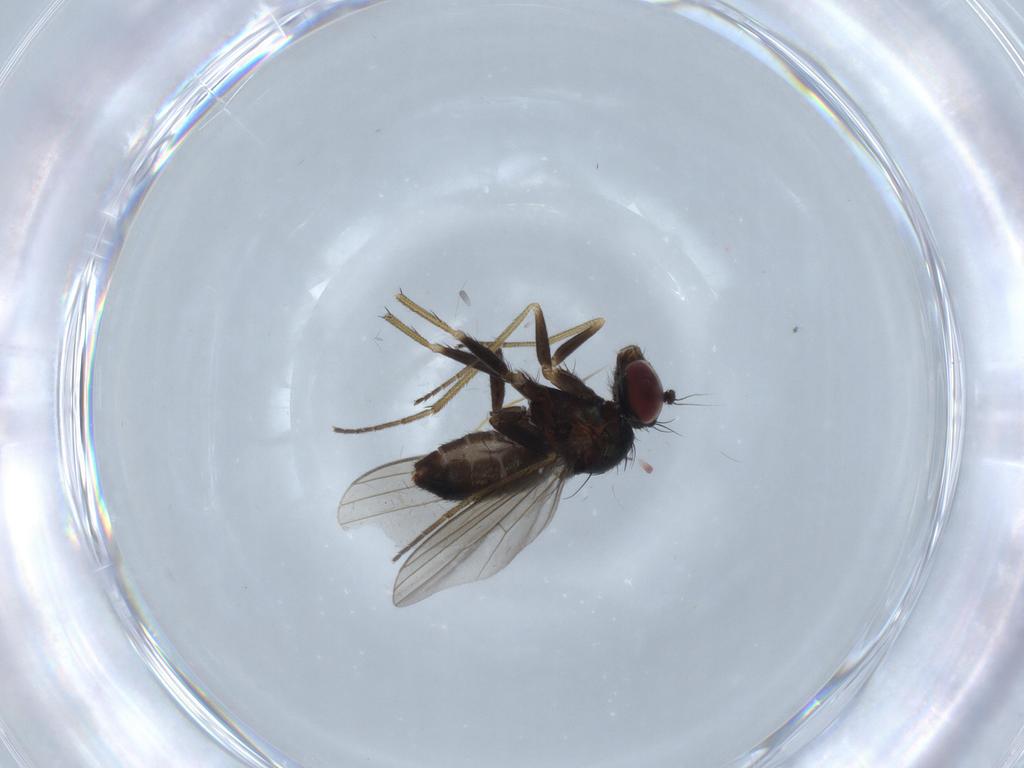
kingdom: Animalia
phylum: Arthropoda
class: Insecta
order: Diptera
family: Dolichopodidae
